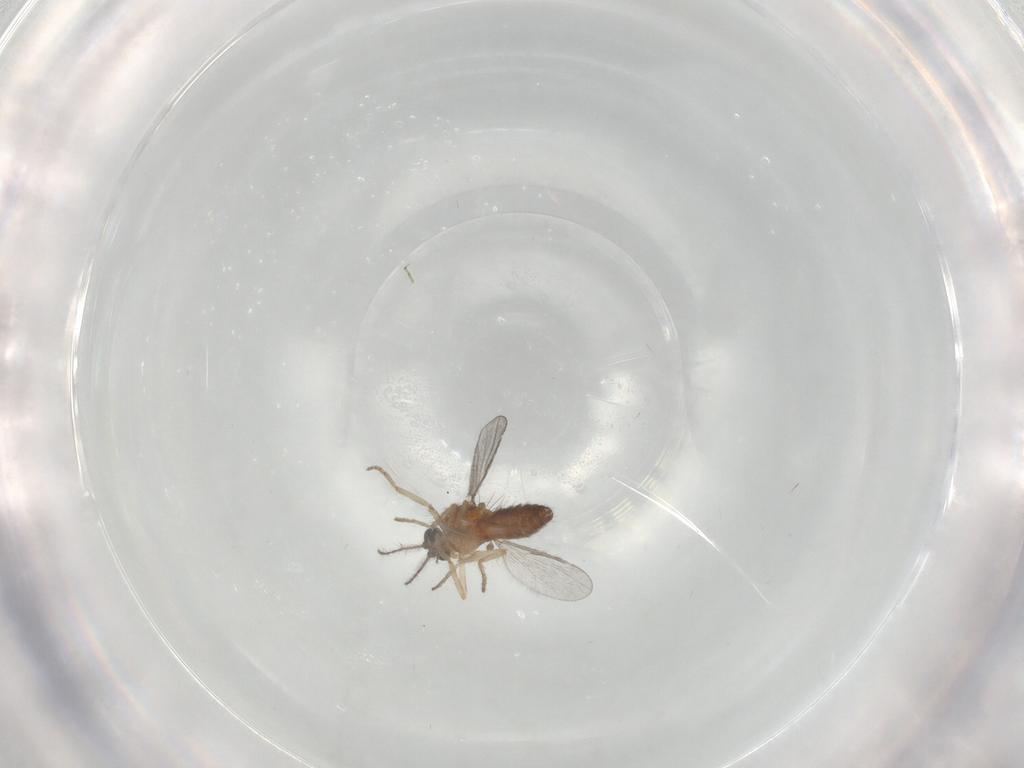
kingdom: Animalia
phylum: Arthropoda
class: Insecta
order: Diptera
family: Ceratopogonidae
